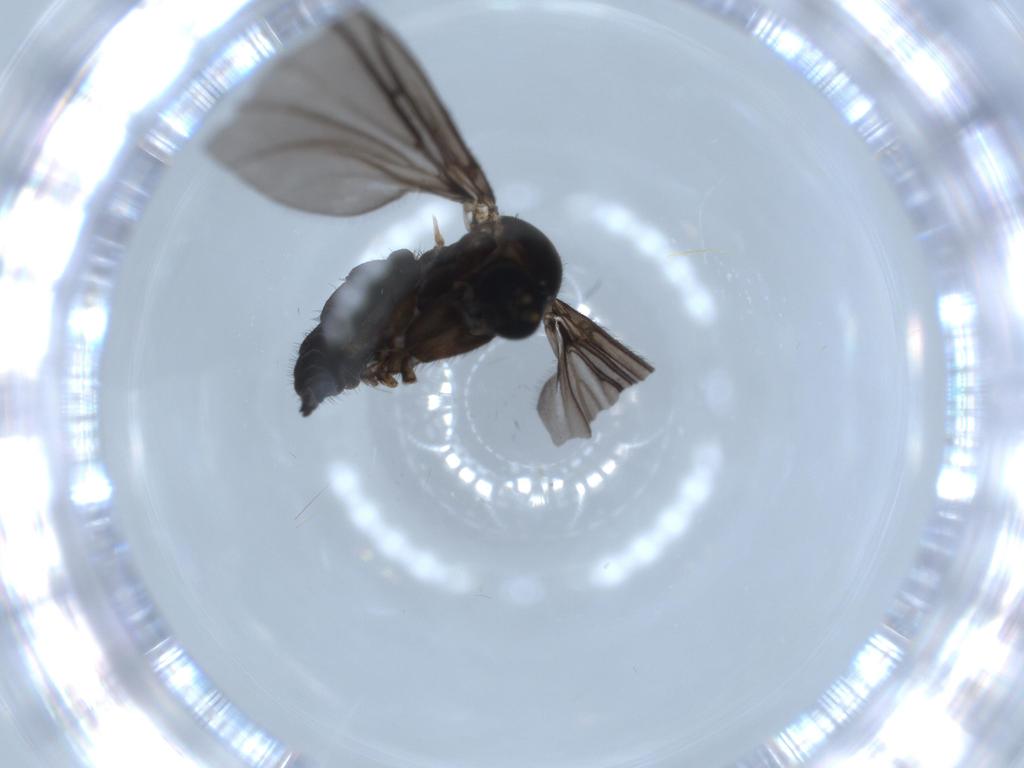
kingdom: Animalia
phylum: Arthropoda
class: Insecta
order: Diptera
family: Sciaridae
